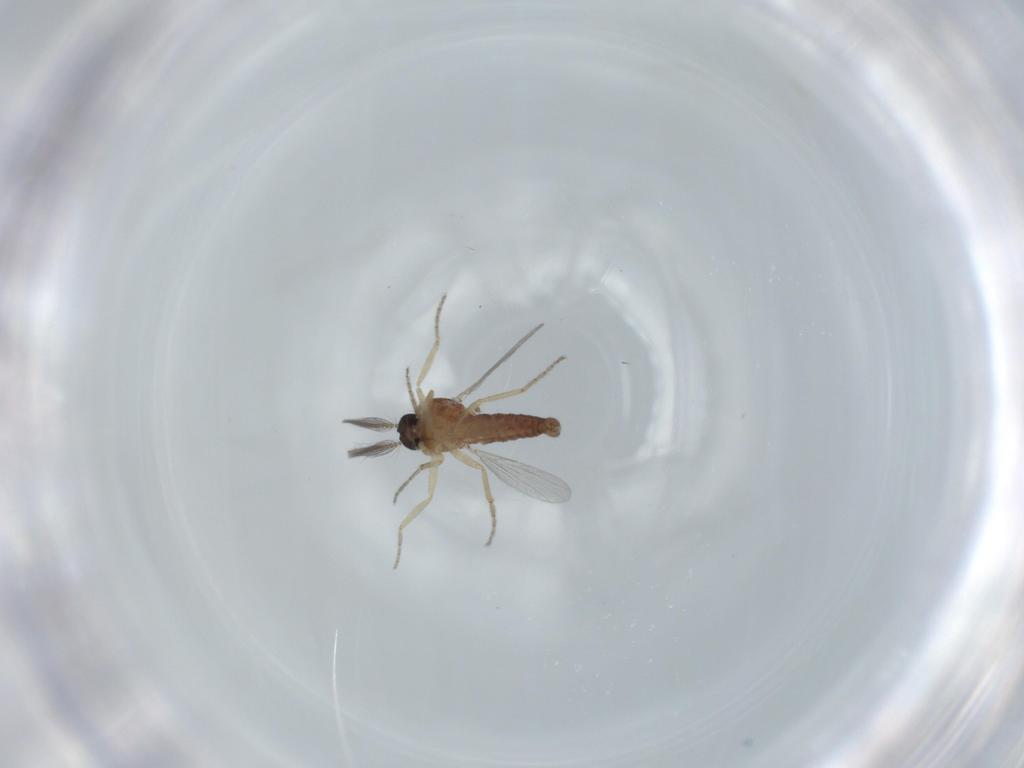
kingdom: Animalia
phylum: Arthropoda
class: Insecta
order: Diptera
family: Ceratopogonidae
